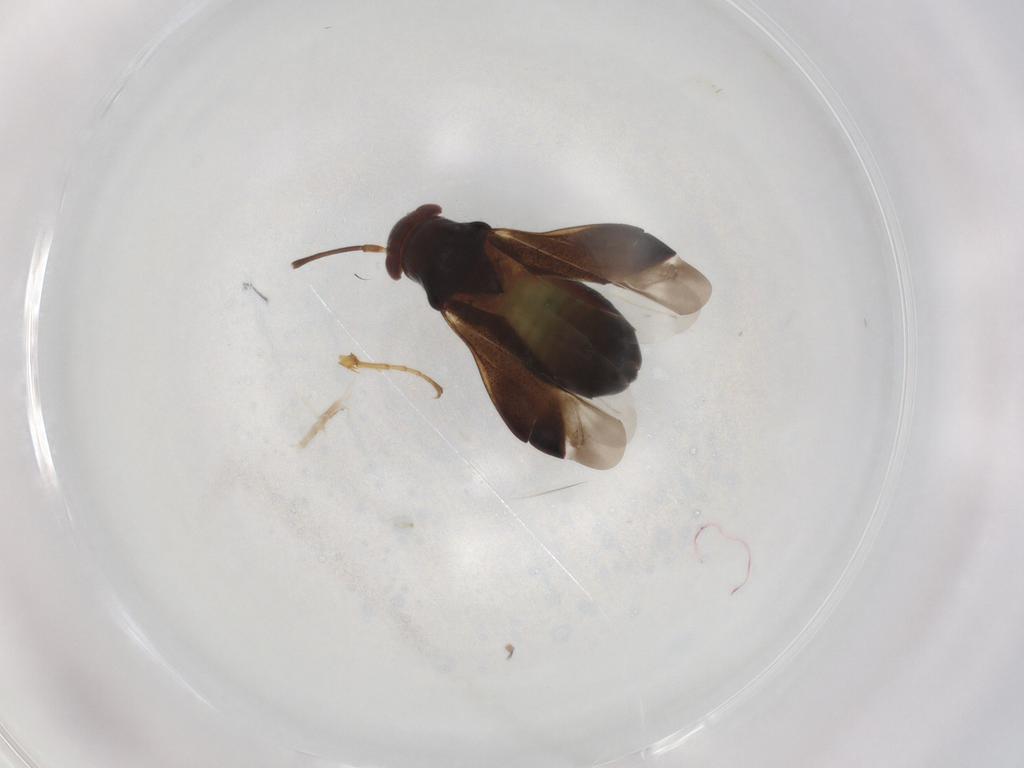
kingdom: Animalia
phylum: Arthropoda
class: Insecta
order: Hemiptera
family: Miridae
